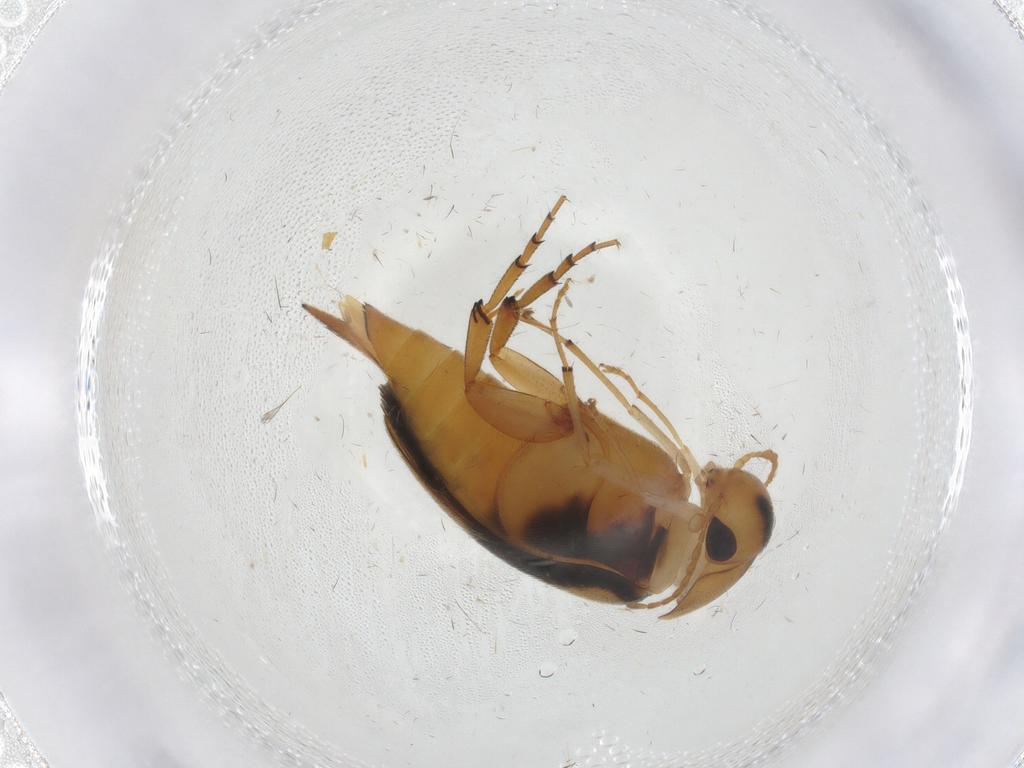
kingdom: Animalia
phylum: Arthropoda
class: Insecta
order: Coleoptera
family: Mordellidae
